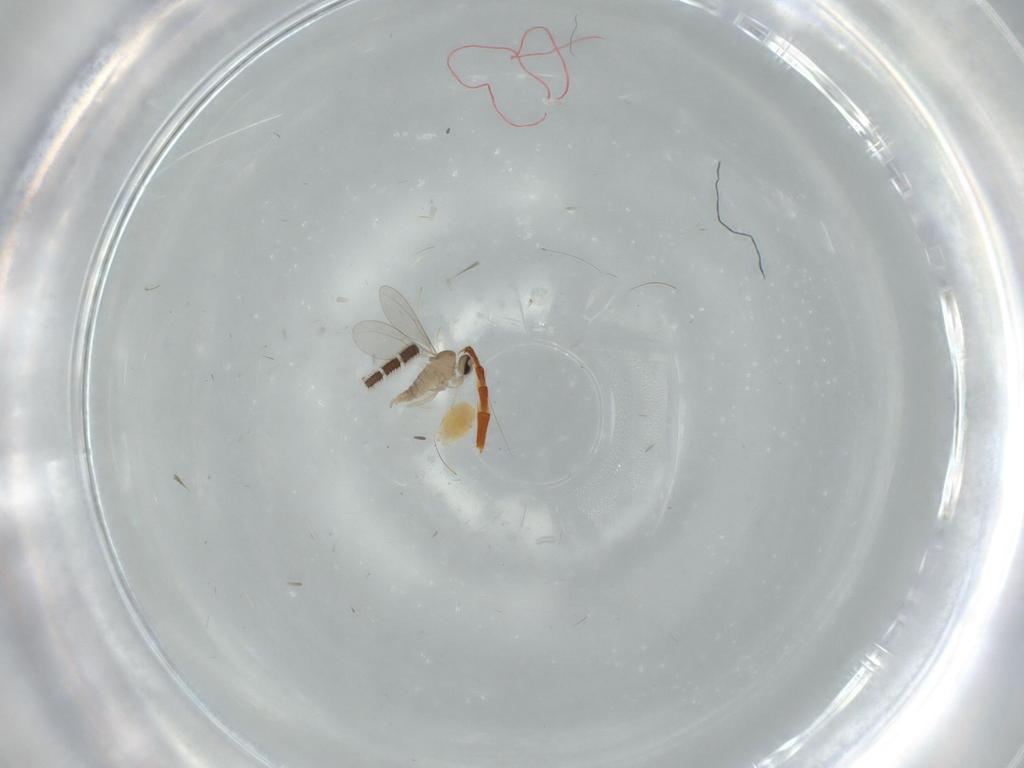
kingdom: Animalia
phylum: Arthropoda
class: Insecta
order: Diptera
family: Cecidomyiidae
